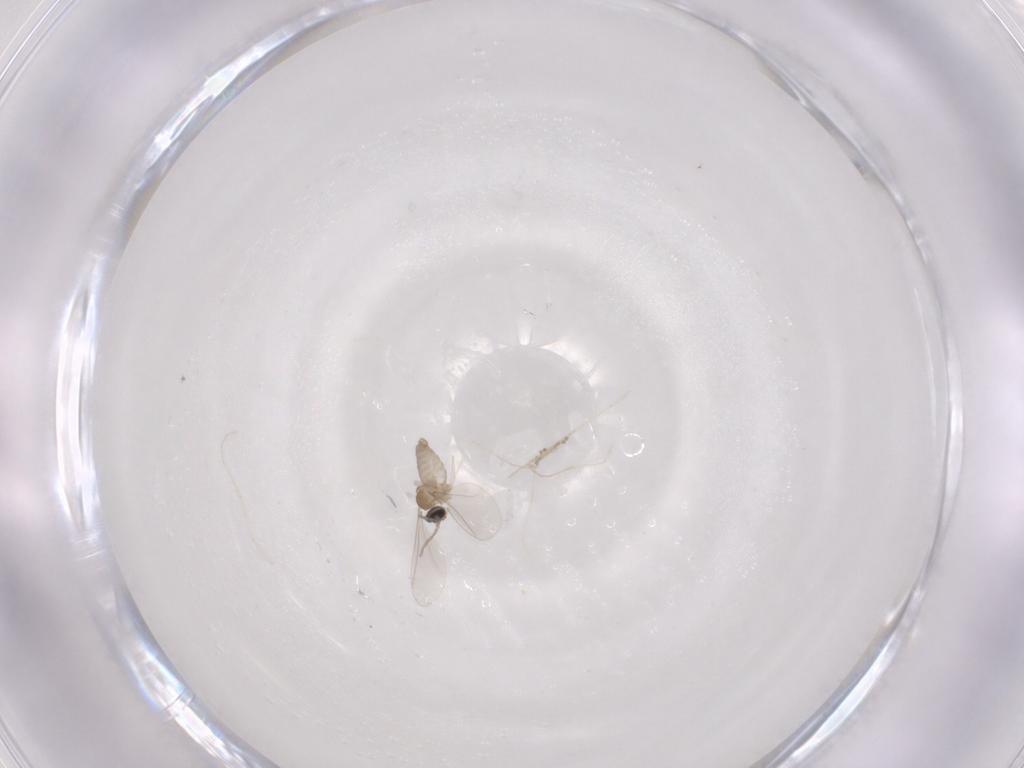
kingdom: Animalia
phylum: Arthropoda
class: Insecta
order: Diptera
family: Cecidomyiidae
